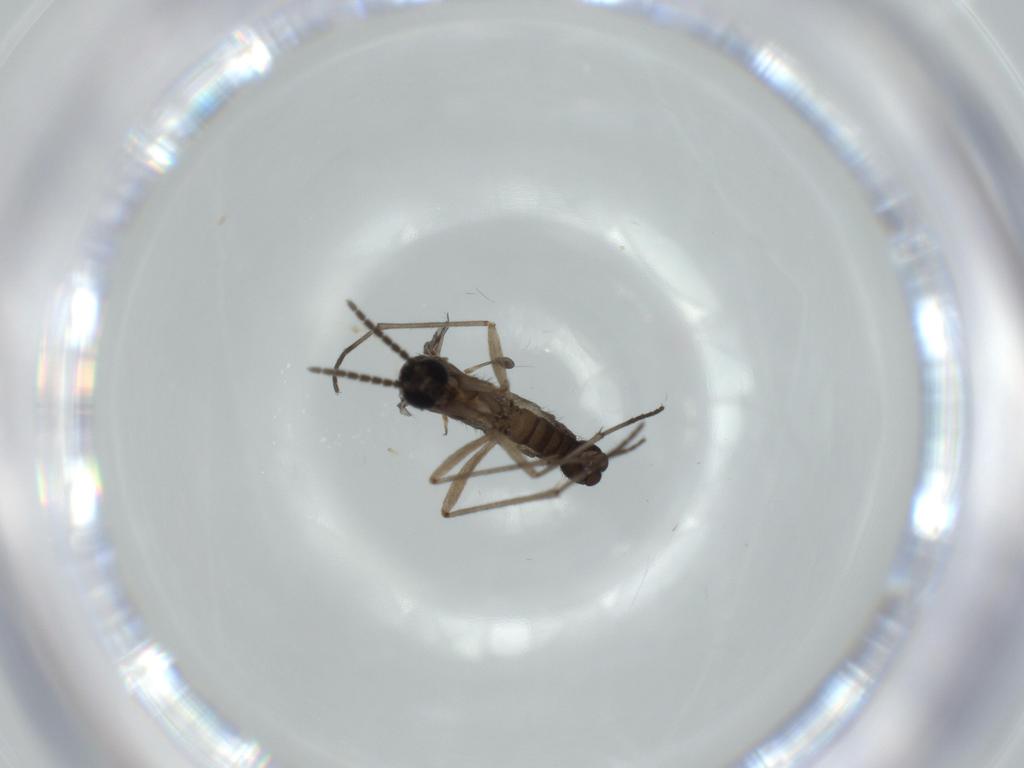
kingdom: Animalia
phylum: Arthropoda
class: Insecta
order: Diptera
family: Sciaridae
